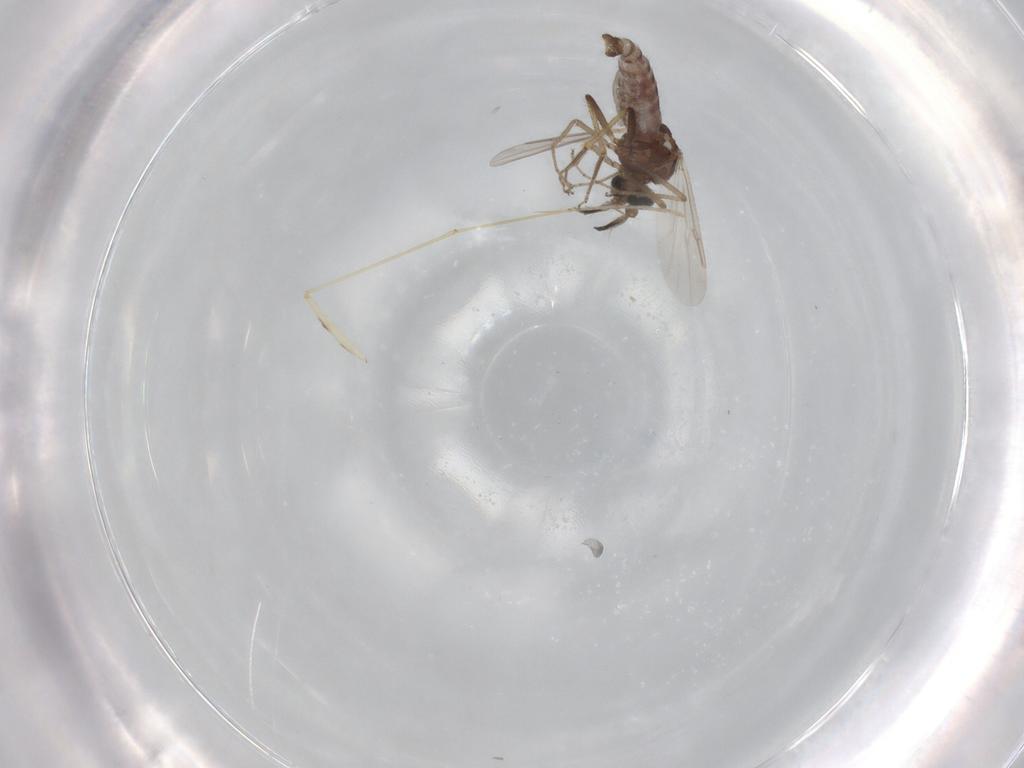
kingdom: Animalia
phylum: Arthropoda
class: Insecta
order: Diptera
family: Ceratopogonidae
